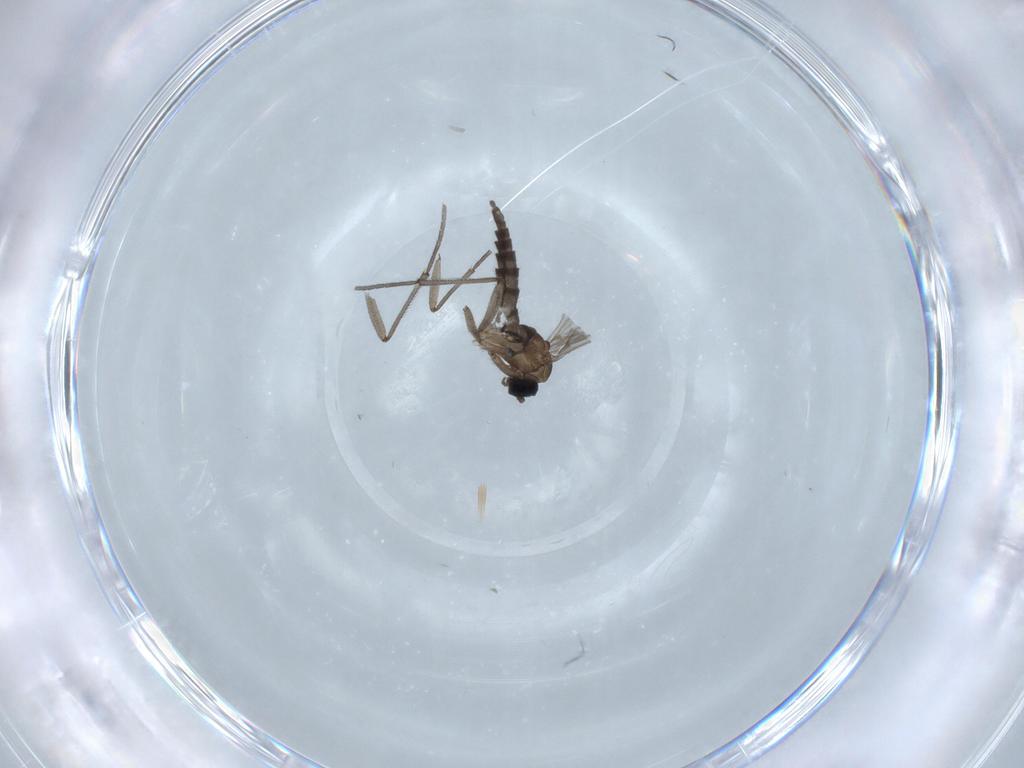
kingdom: Animalia
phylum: Arthropoda
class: Insecta
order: Diptera
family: Sciaridae
